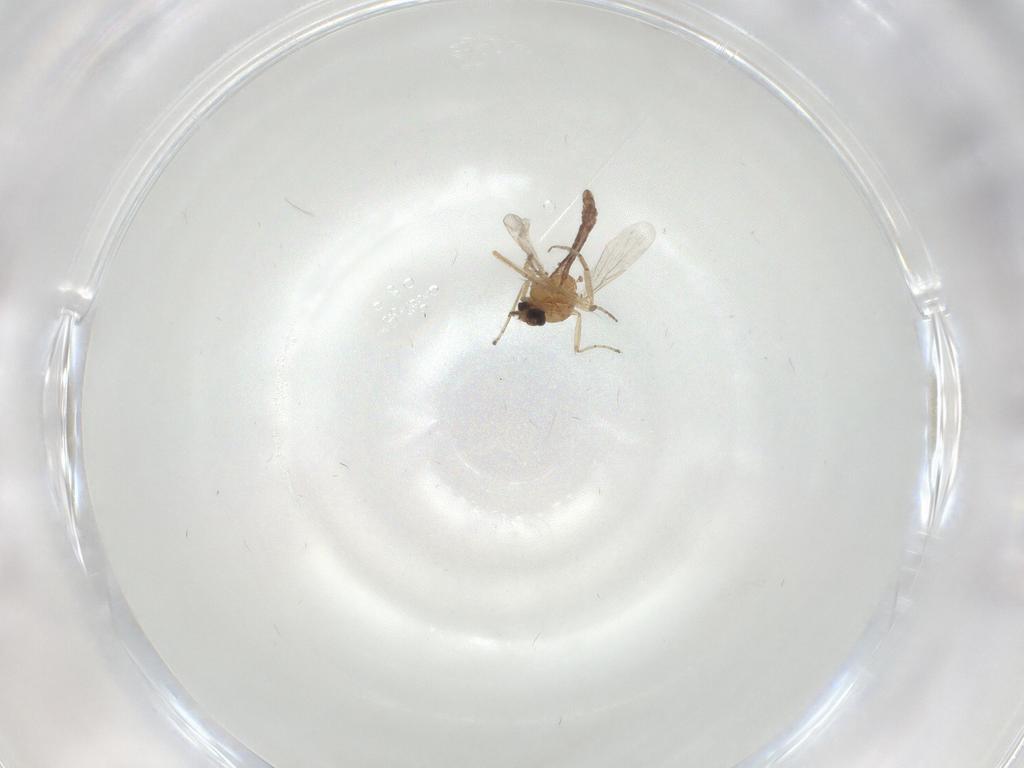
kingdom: Animalia
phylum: Arthropoda
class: Insecta
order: Diptera
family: Ceratopogonidae
